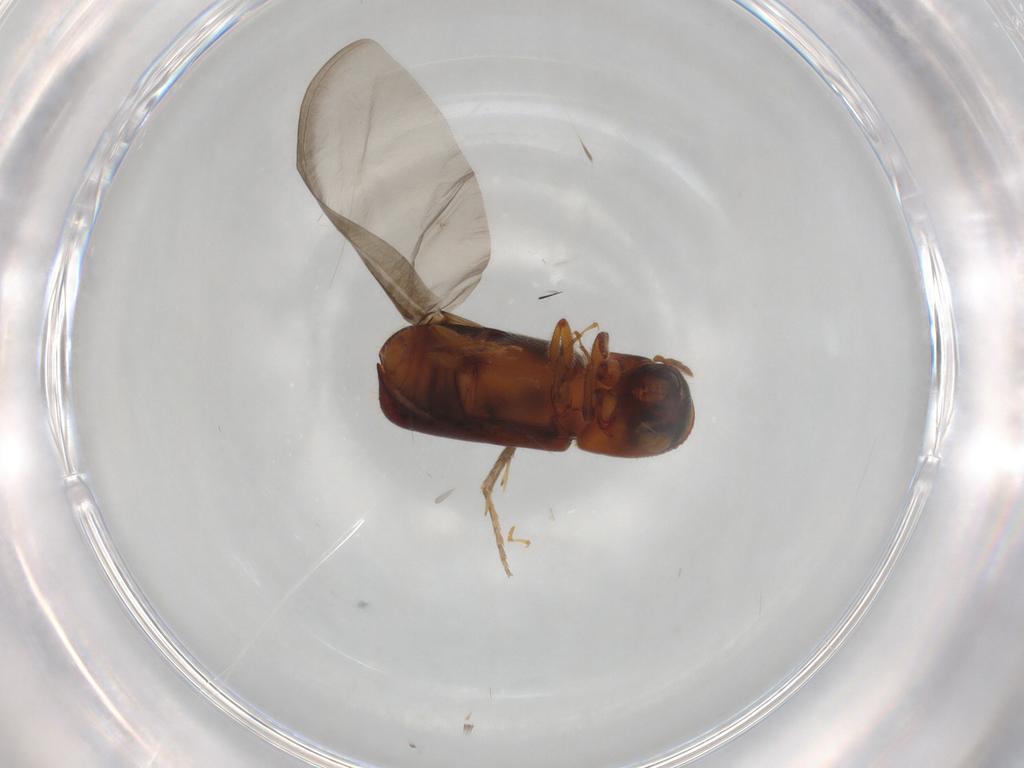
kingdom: Animalia
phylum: Arthropoda
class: Insecta
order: Coleoptera
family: Curculionidae
